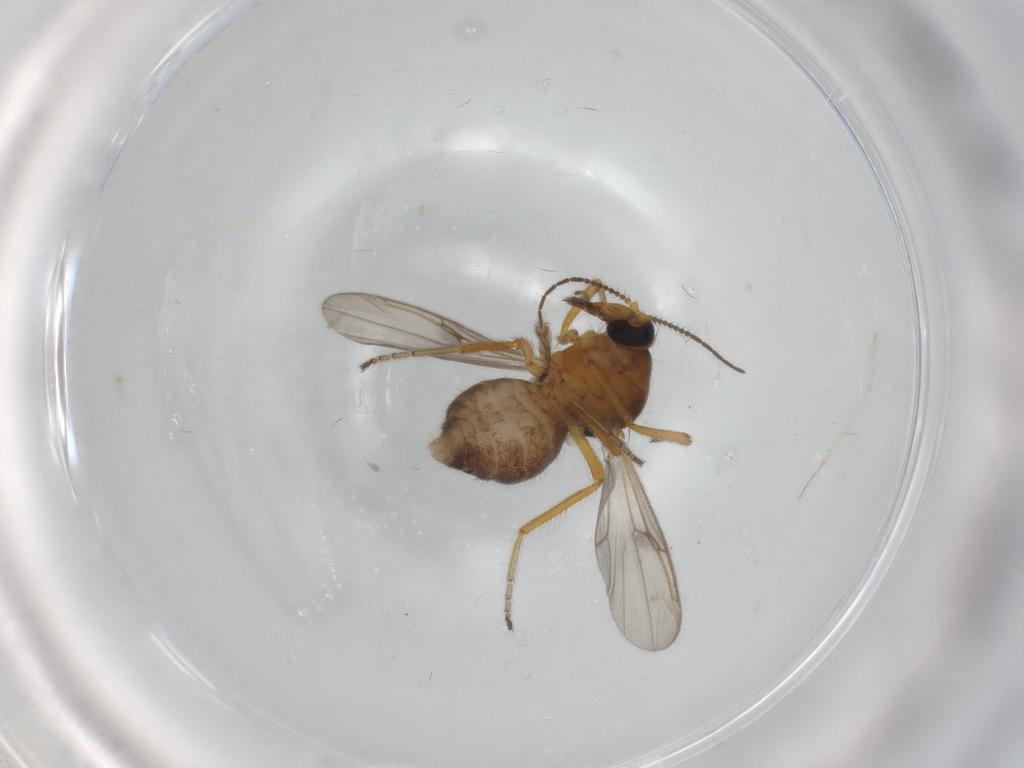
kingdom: Animalia
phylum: Arthropoda
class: Insecta
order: Diptera
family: Ceratopogonidae
